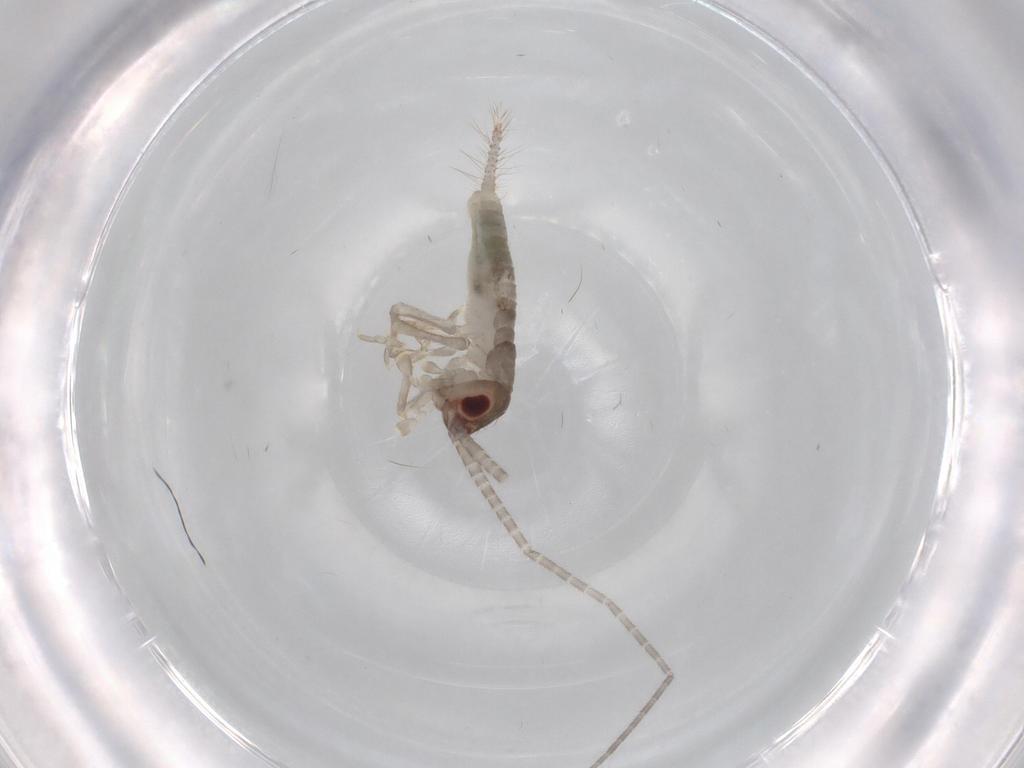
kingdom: Animalia
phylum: Arthropoda
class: Insecta
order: Orthoptera
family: Gryllidae
